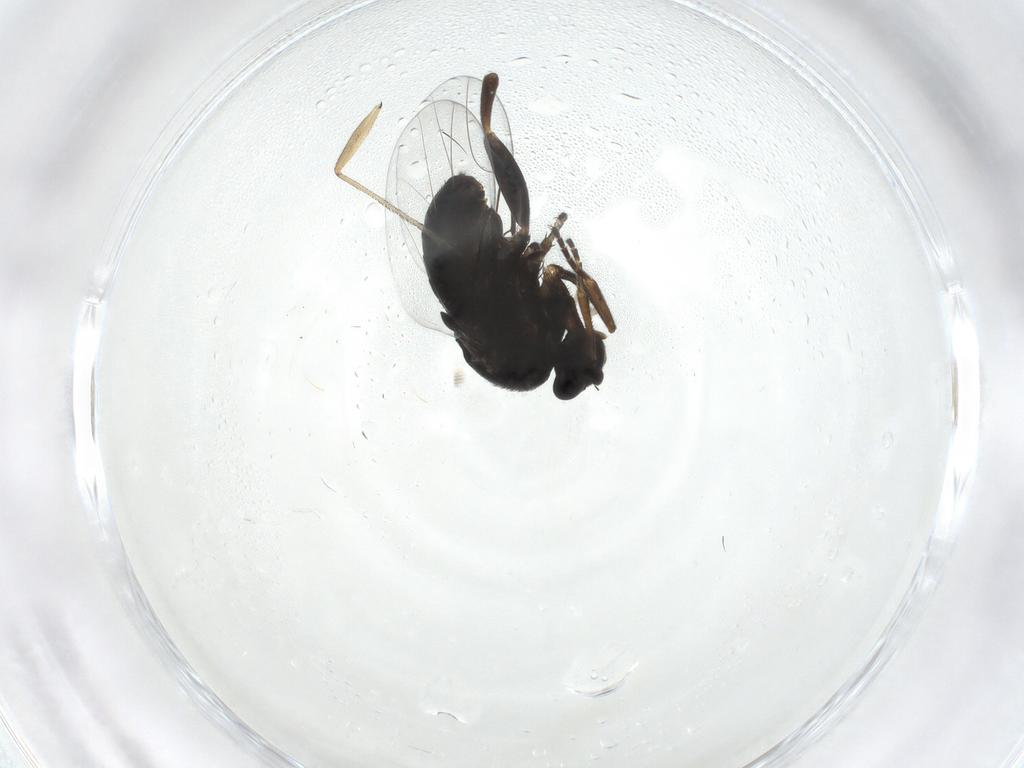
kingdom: Animalia
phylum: Arthropoda
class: Insecta
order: Diptera
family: Phoridae
